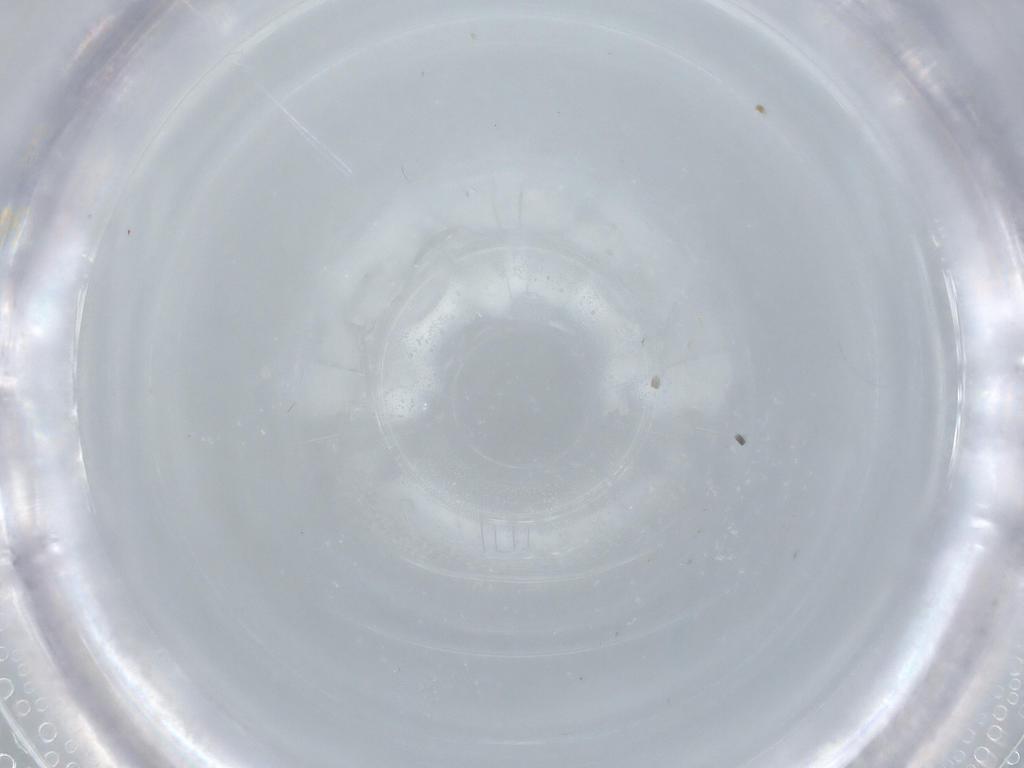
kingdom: Animalia
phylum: Arthropoda
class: Insecta
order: Diptera
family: Psychodidae
